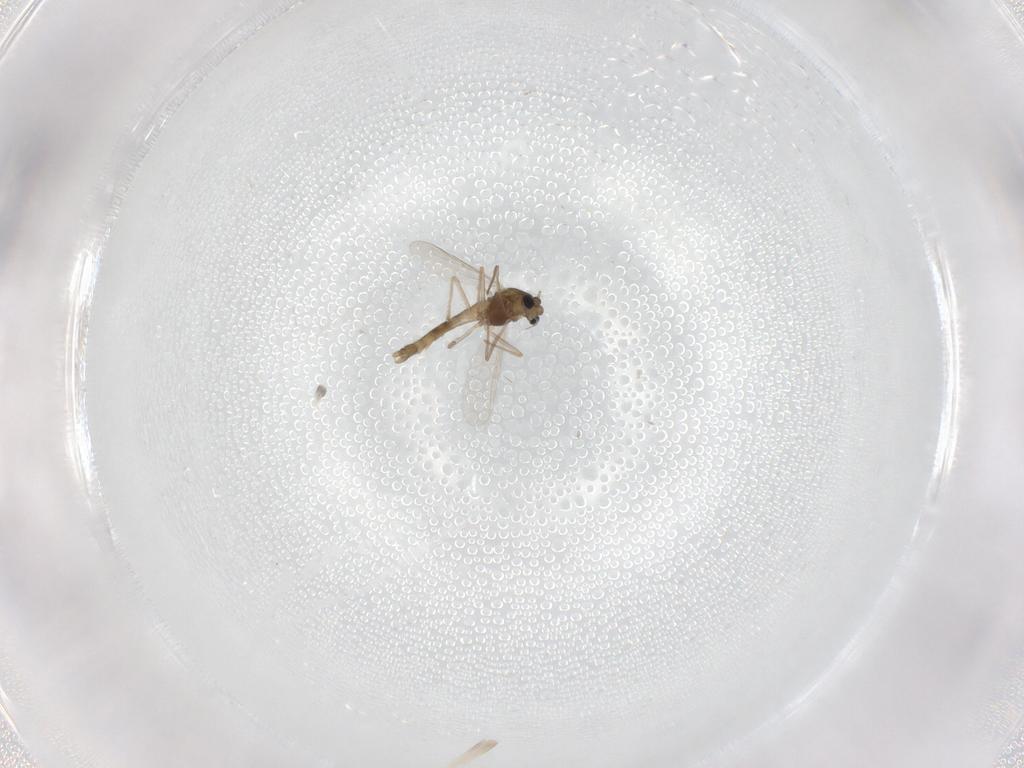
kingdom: Animalia
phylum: Arthropoda
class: Insecta
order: Diptera
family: Chironomidae
